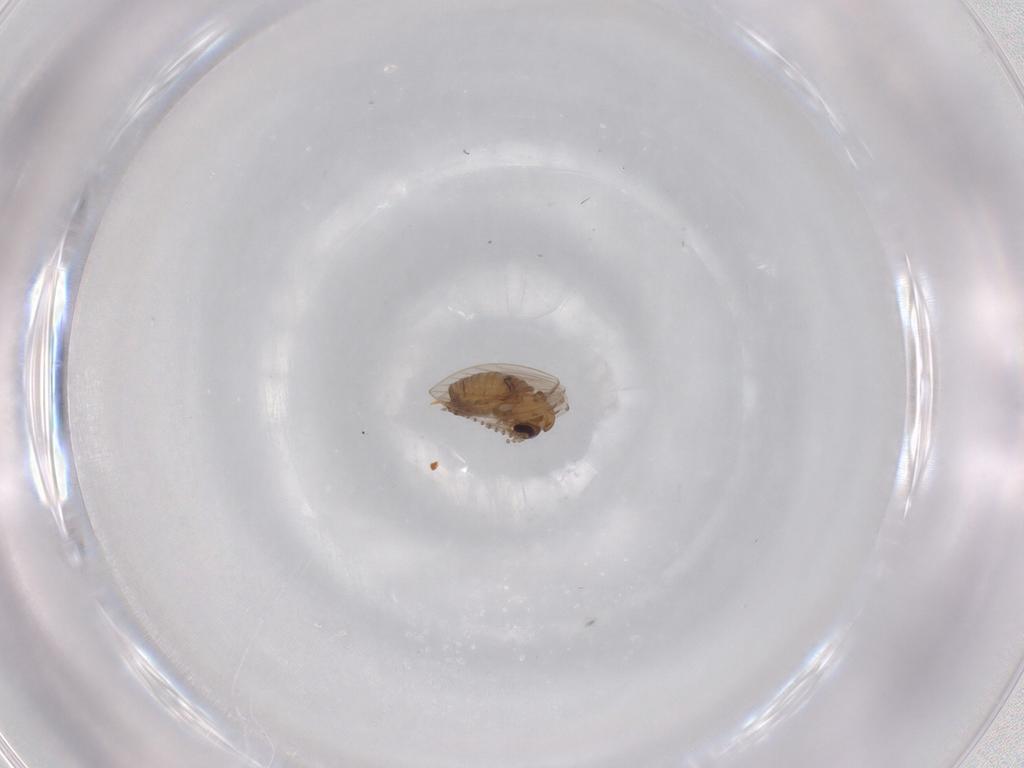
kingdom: Animalia
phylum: Arthropoda
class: Insecta
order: Diptera
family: Psychodidae
